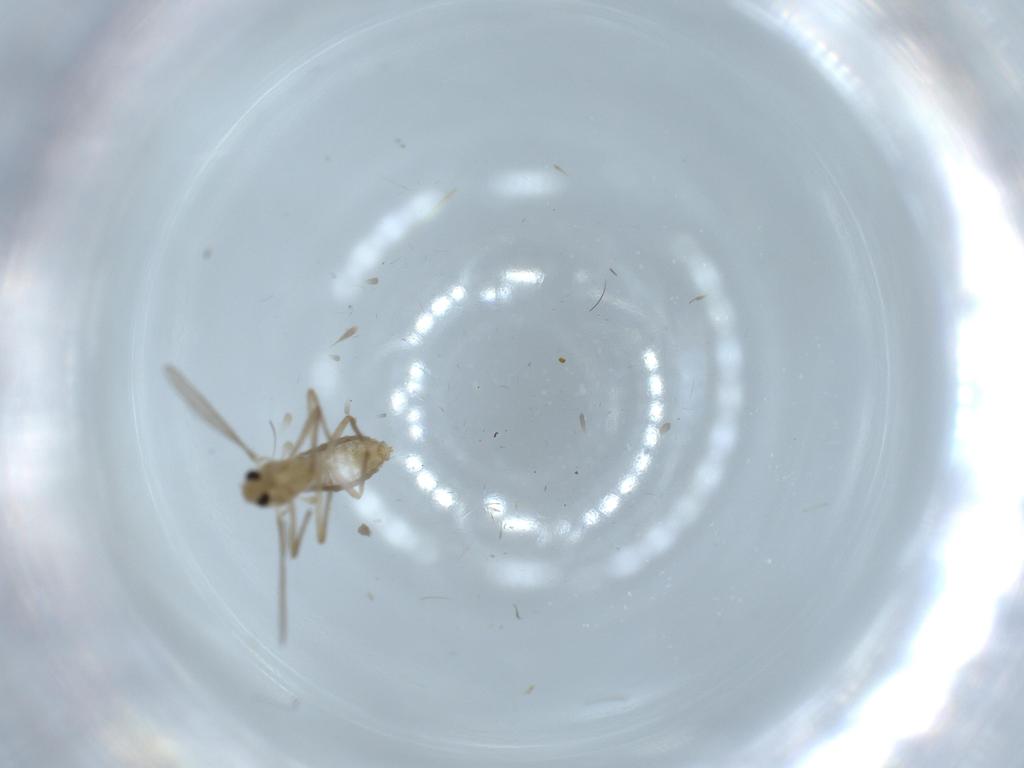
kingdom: Animalia
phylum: Arthropoda
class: Insecta
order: Diptera
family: Chironomidae
